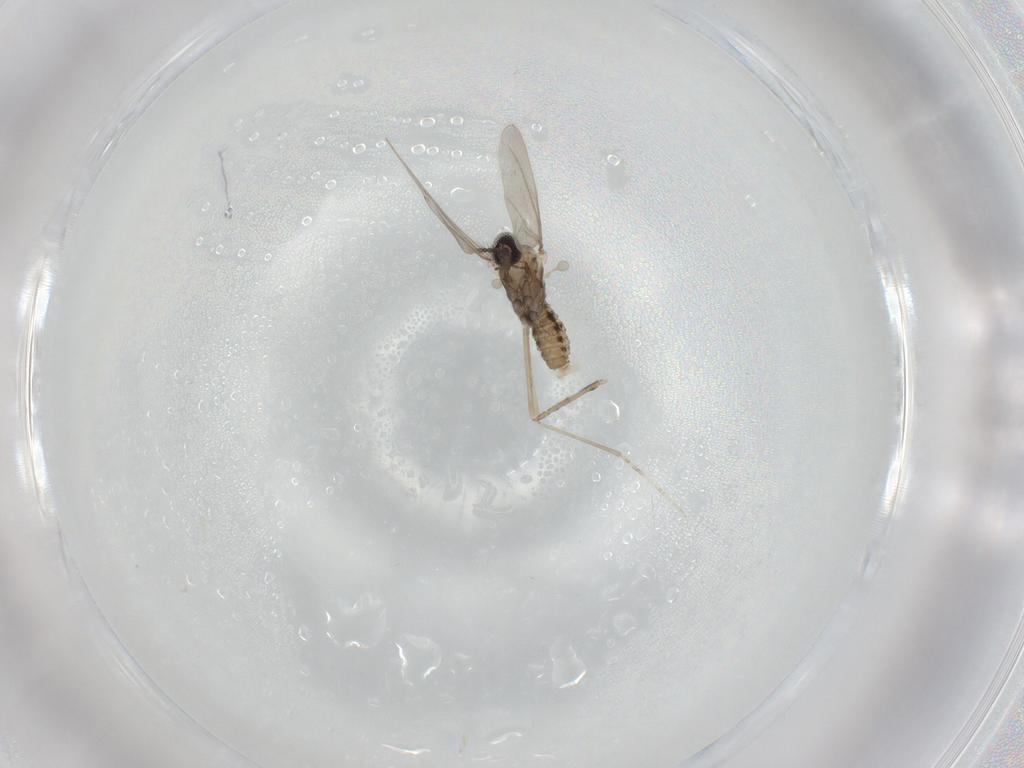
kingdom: Animalia
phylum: Arthropoda
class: Insecta
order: Diptera
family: Cecidomyiidae
